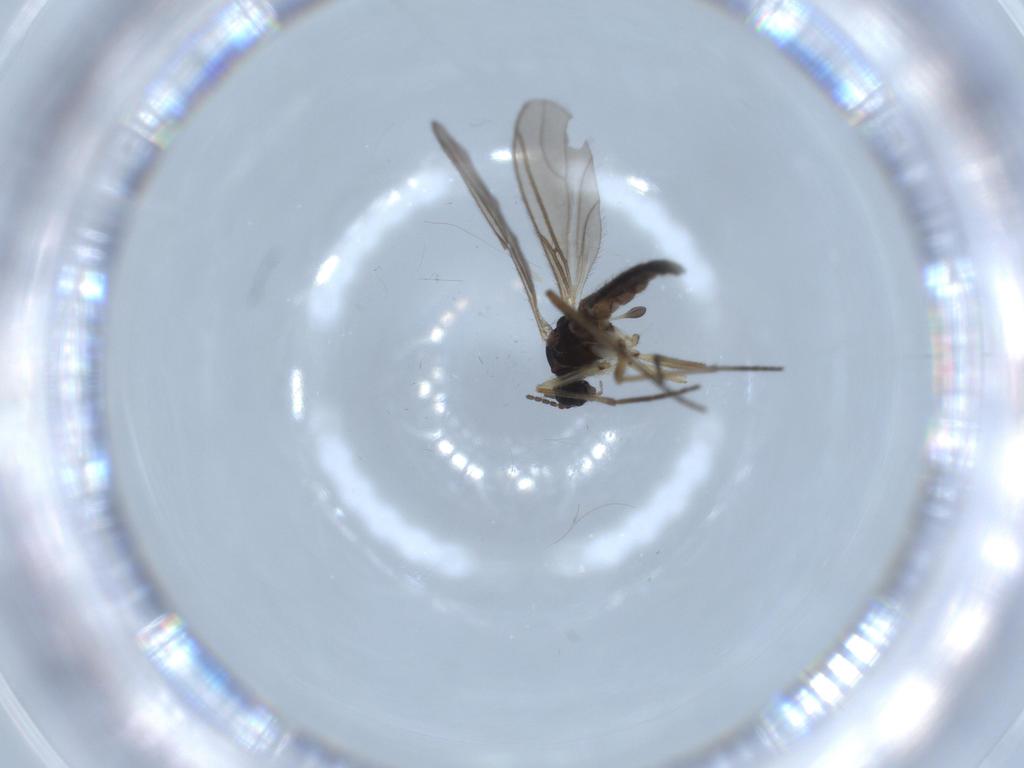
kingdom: Animalia
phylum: Arthropoda
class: Insecta
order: Diptera
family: Sciaridae
